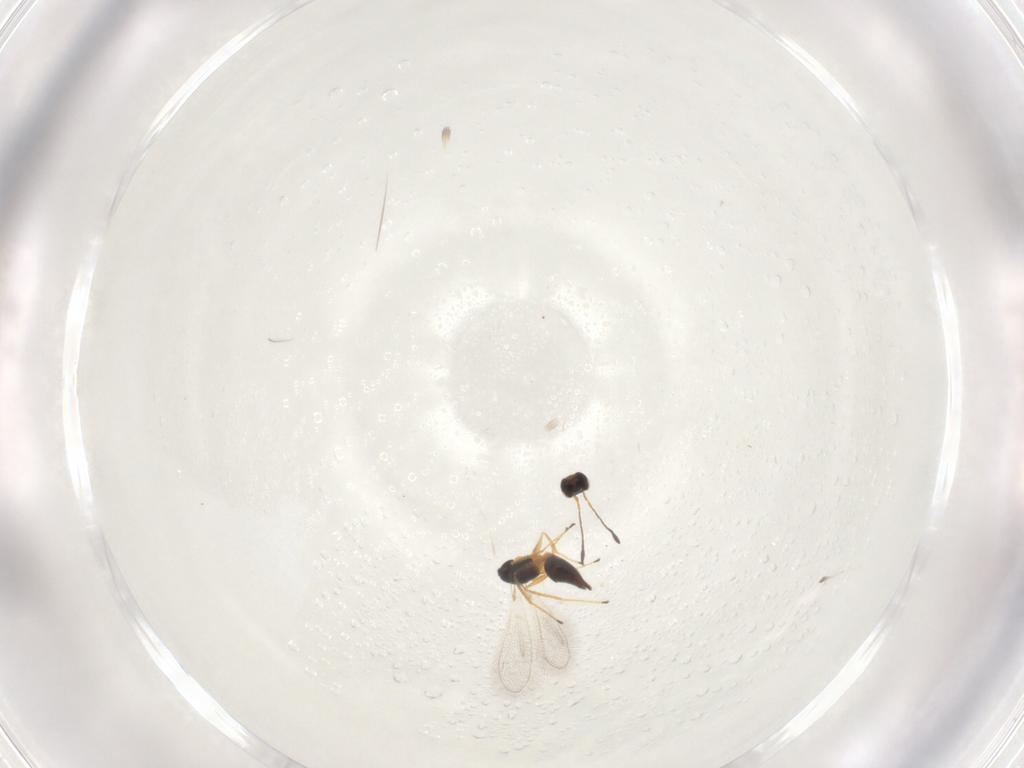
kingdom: Animalia
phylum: Arthropoda
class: Insecta
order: Hymenoptera
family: Mymaridae
